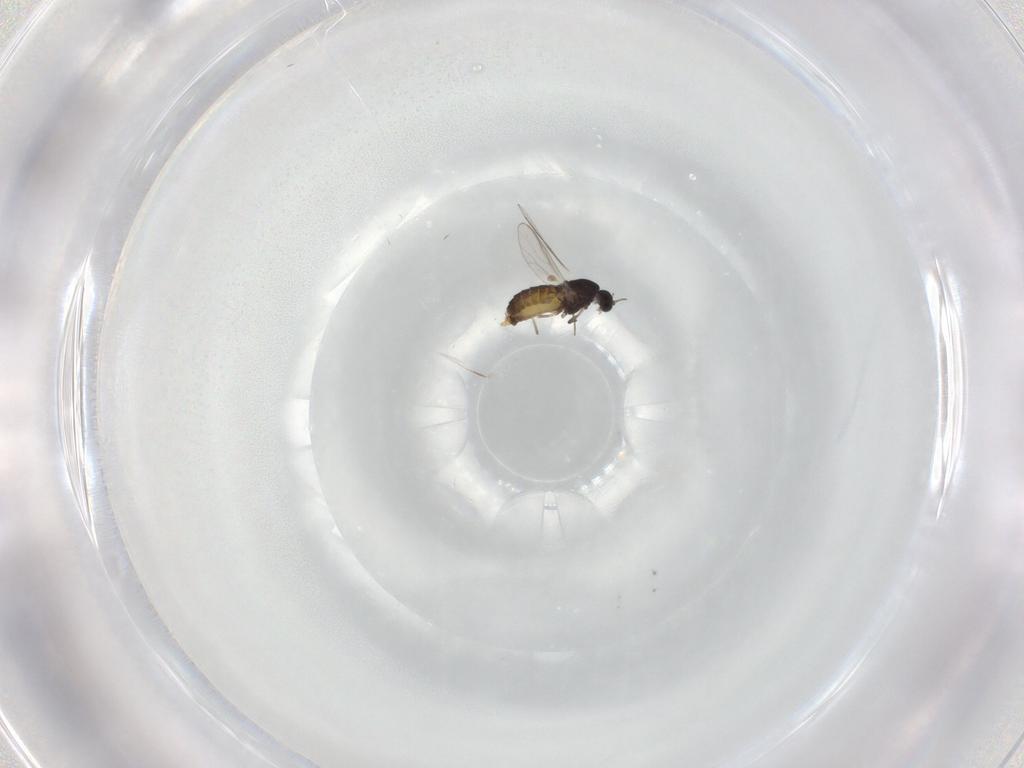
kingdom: Animalia
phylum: Arthropoda
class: Insecta
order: Diptera
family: Chironomidae
